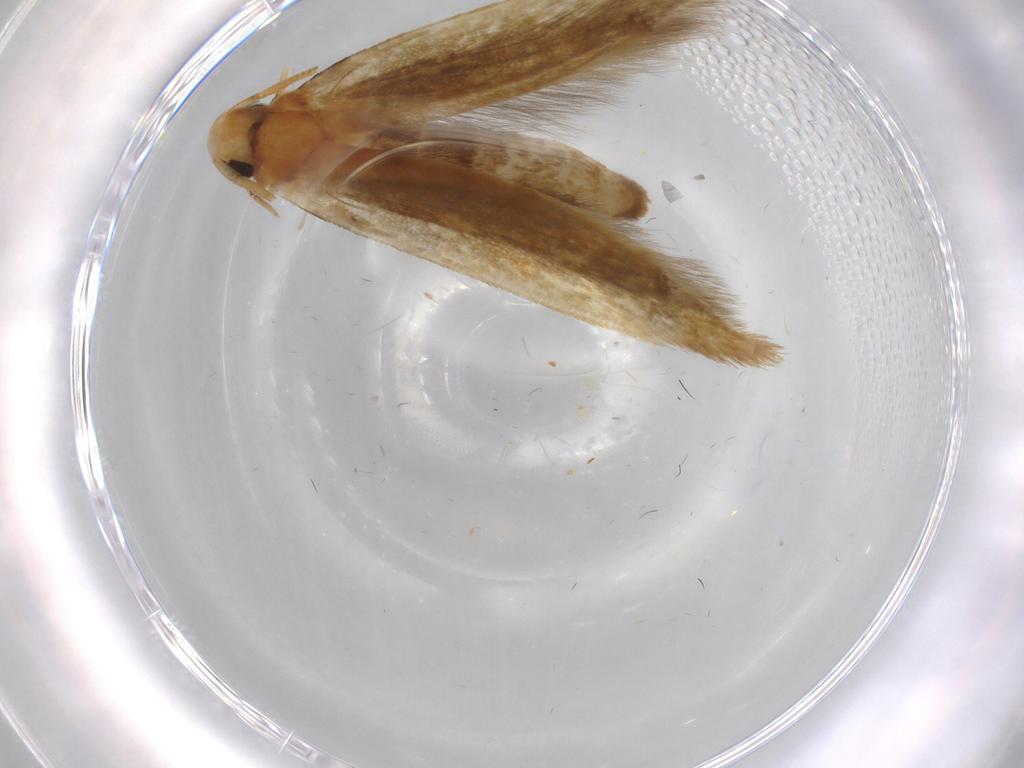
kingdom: Animalia
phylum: Arthropoda
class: Insecta
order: Lepidoptera
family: Tineidae
